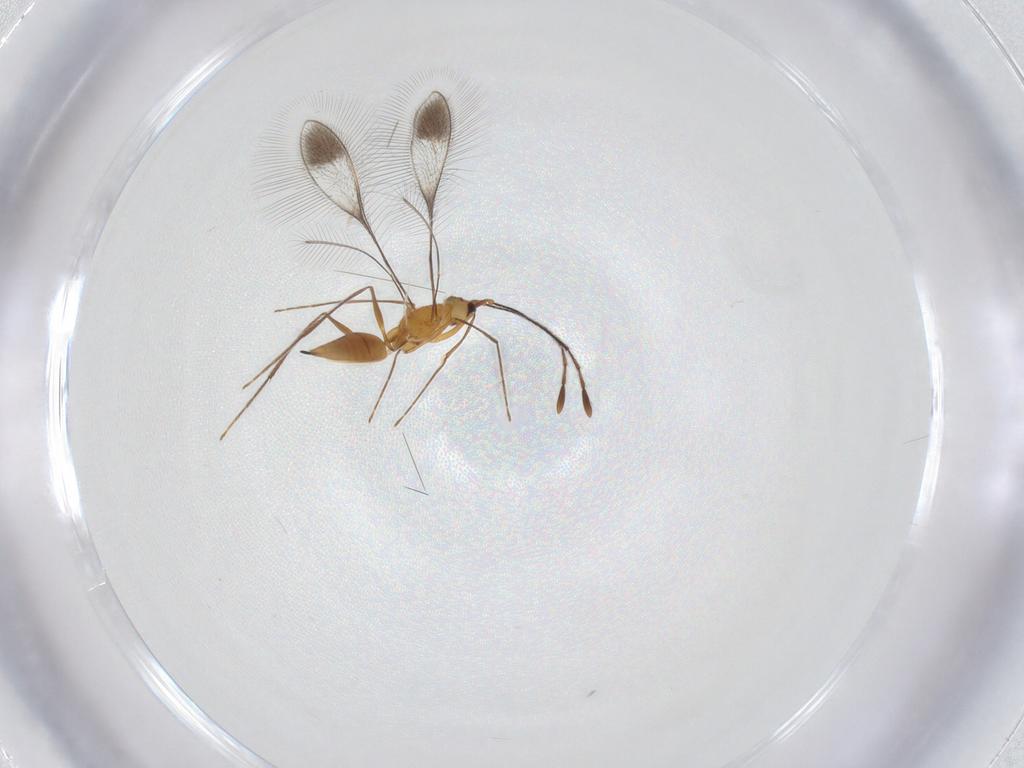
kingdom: Animalia
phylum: Arthropoda
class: Insecta
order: Hymenoptera
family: Mymaridae
